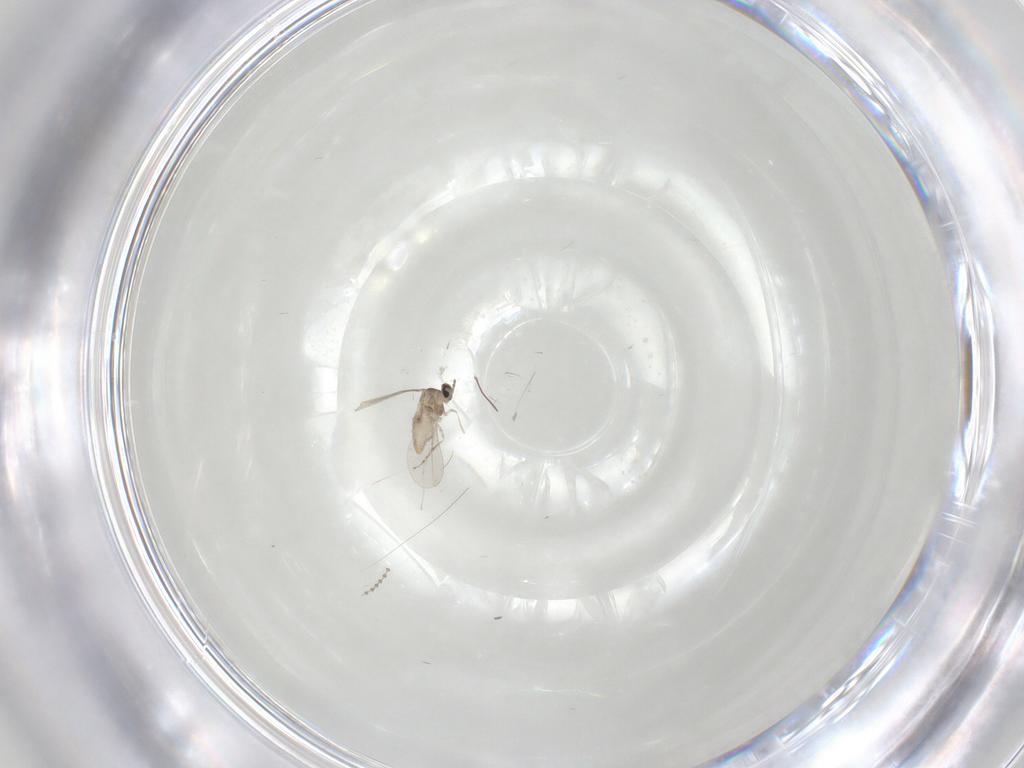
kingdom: Animalia
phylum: Arthropoda
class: Insecta
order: Diptera
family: Cecidomyiidae
